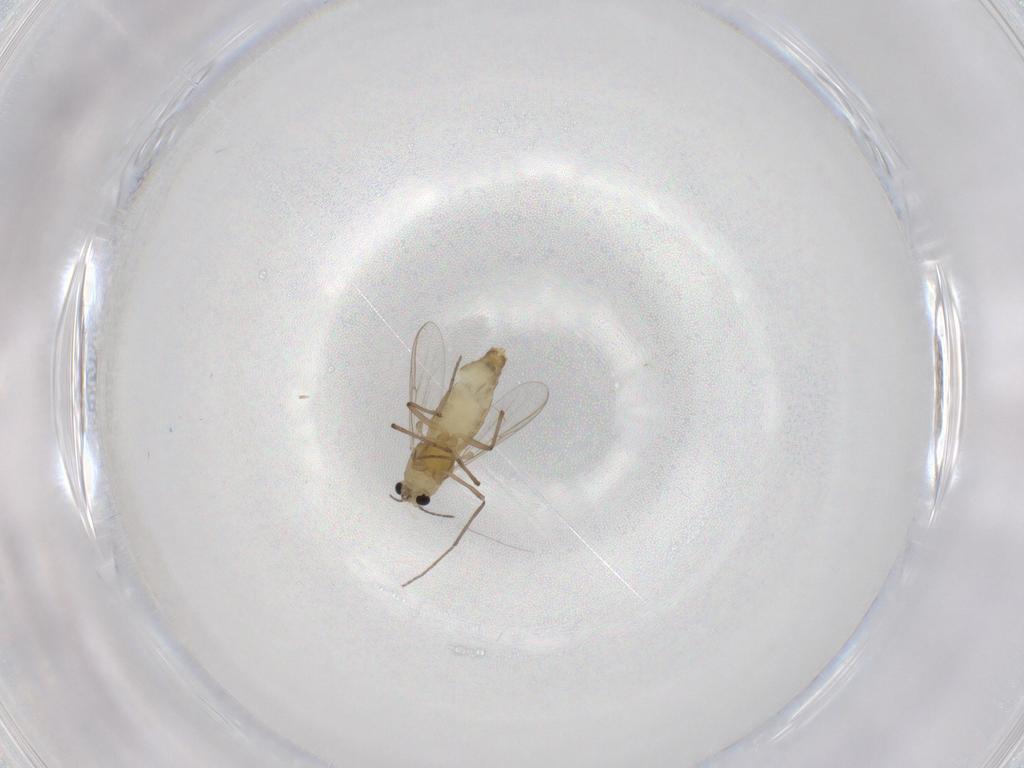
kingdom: Animalia
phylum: Arthropoda
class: Insecta
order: Diptera
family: Chironomidae
